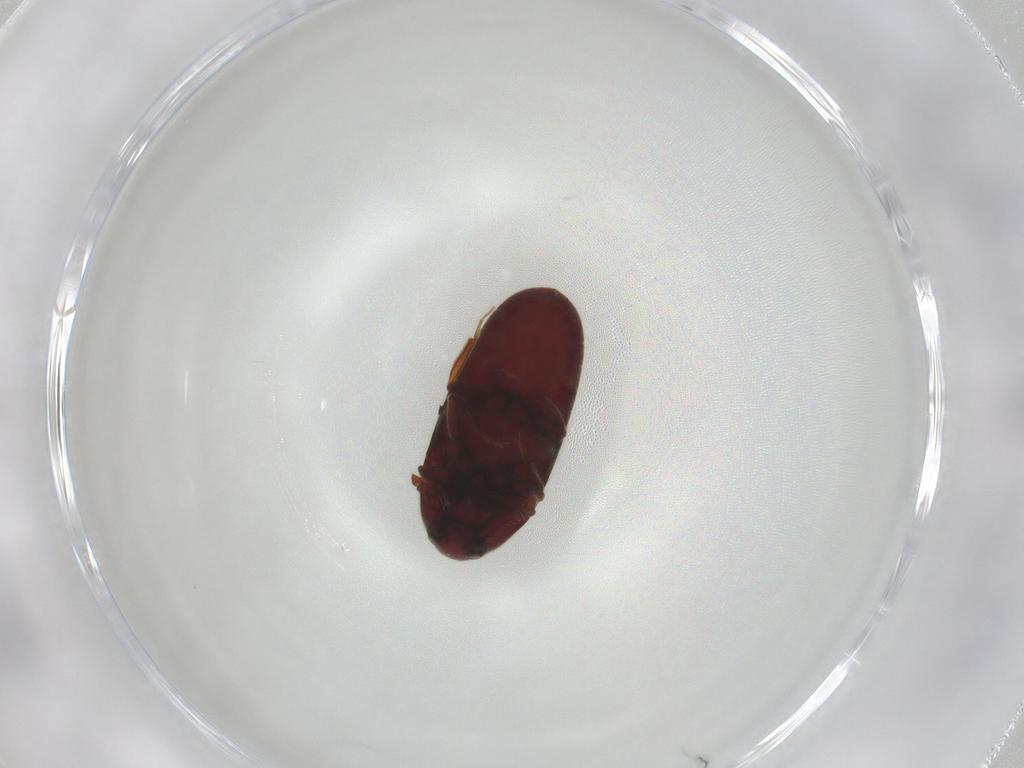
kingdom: Animalia
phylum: Arthropoda
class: Insecta
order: Coleoptera
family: Throscidae
